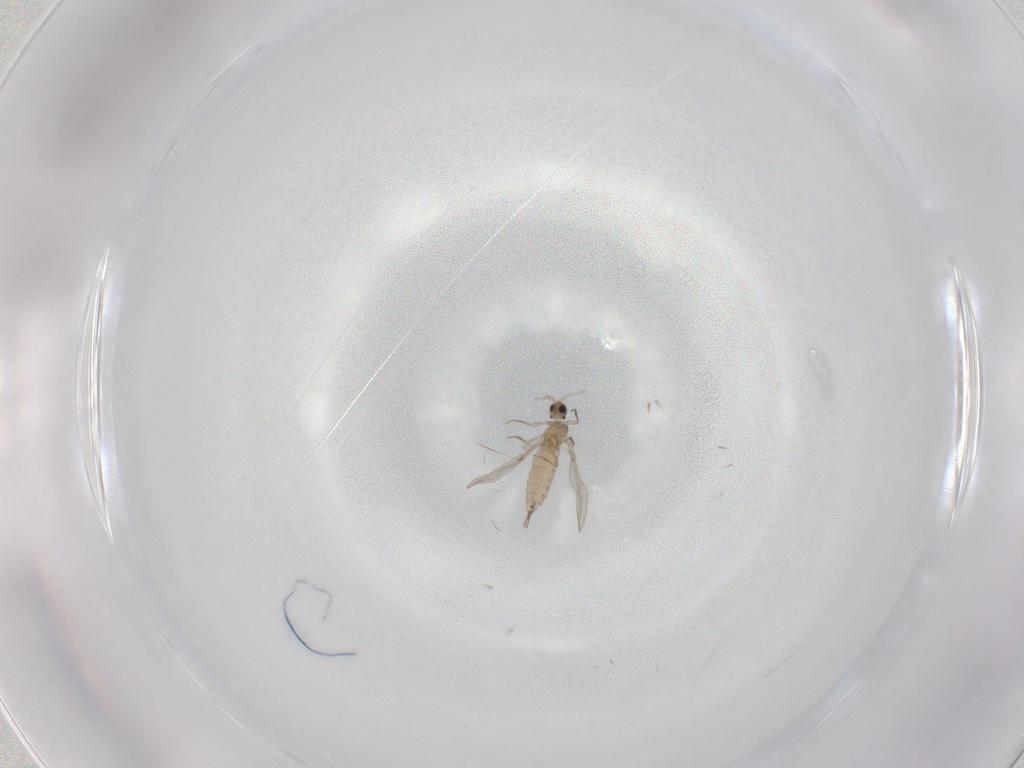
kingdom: Animalia
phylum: Arthropoda
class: Insecta
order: Diptera
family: Cecidomyiidae
